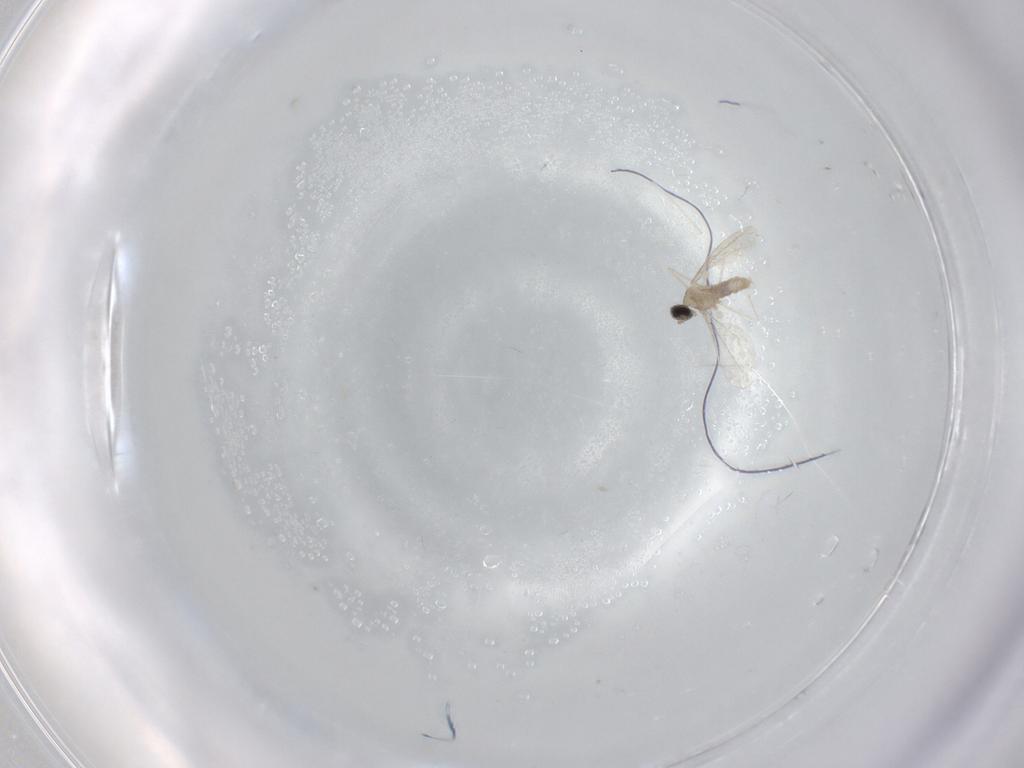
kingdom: Animalia
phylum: Arthropoda
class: Insecta
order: Diptera
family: Cecidomyiidae
